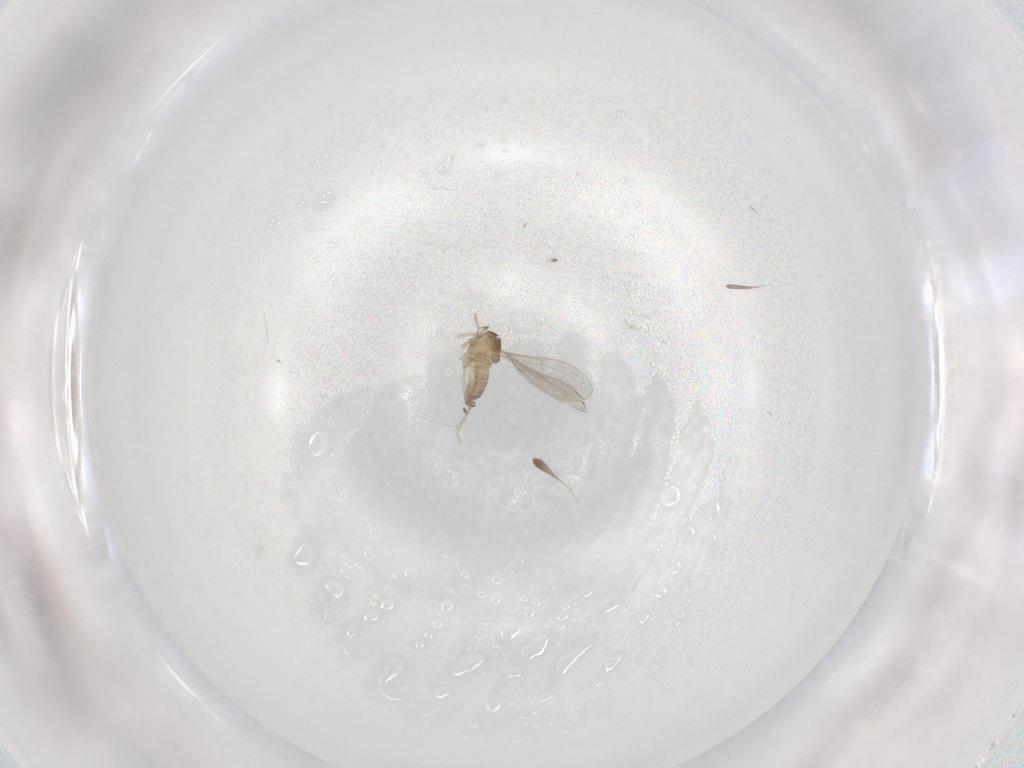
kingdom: Animalia
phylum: Arthropoda
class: Insecta
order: Diptera
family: Cecidomyiidae
